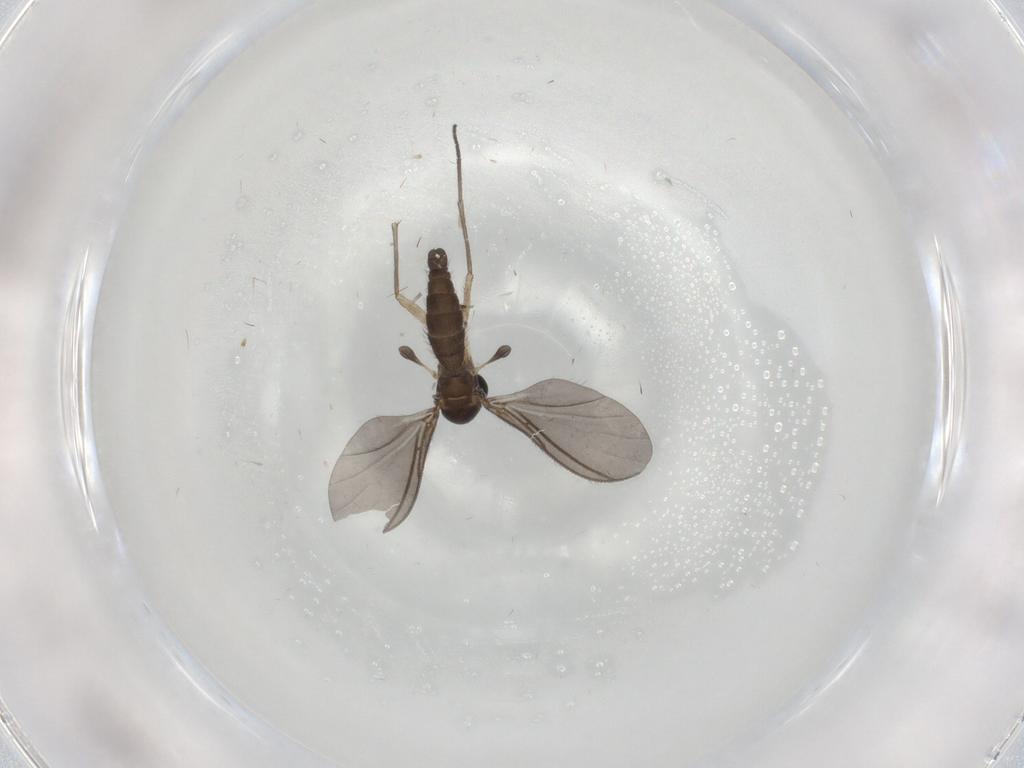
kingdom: Animalia
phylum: Arthropoda
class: Insecta
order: Diptera
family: Sciaridae
